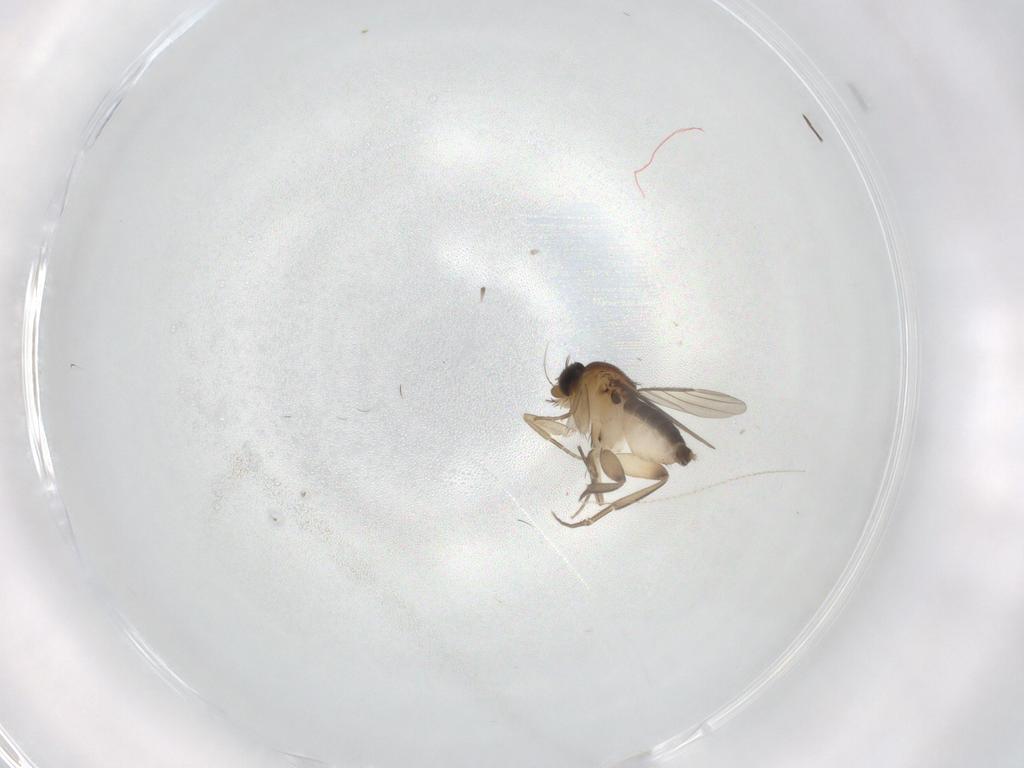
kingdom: Animalia
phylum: Arthropoda
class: Insecta
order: Diptera
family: Phoridae
